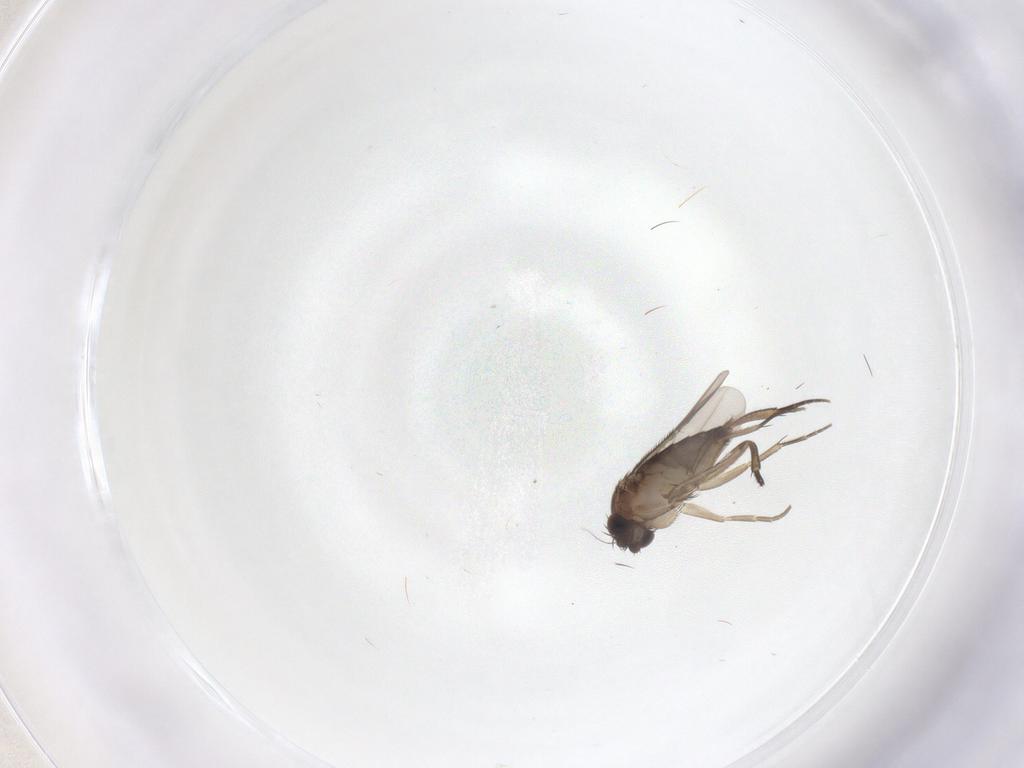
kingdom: Animalia
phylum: Arthropoda
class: Insecta
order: Diptera
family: Phoridae
